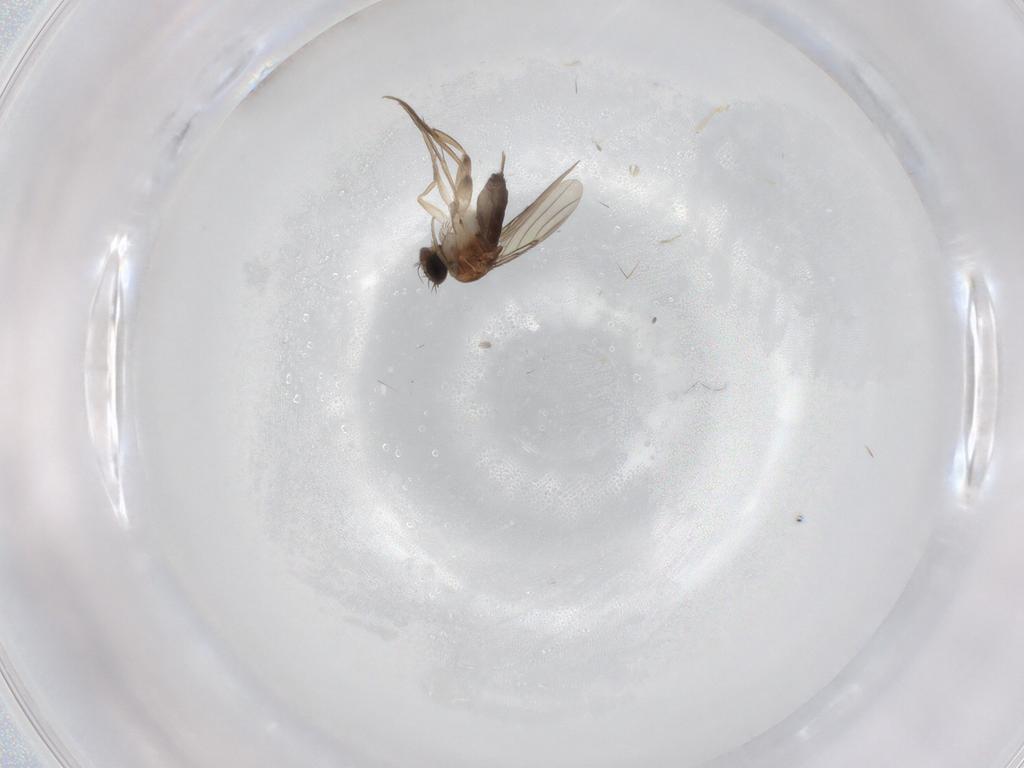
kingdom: Animalia
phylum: Arthropoda
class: Insecta
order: Diptera
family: Phoridae
